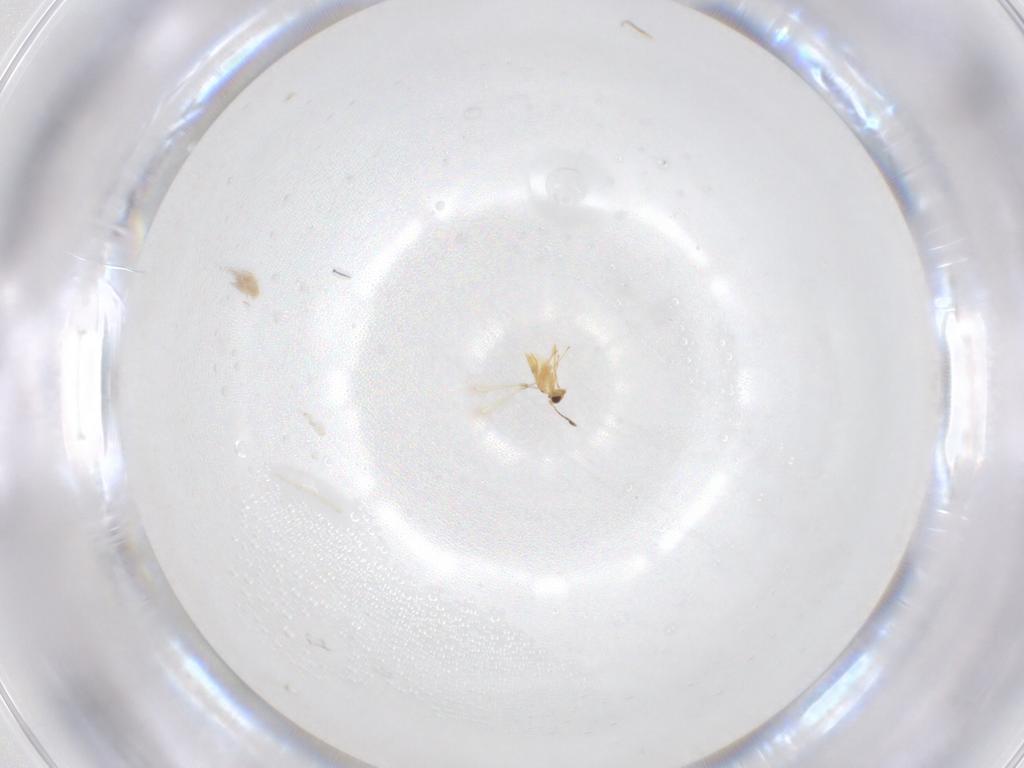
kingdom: Animalia
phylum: Arthropoda
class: Insecta
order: Hymenoptera
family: Mymaridae
